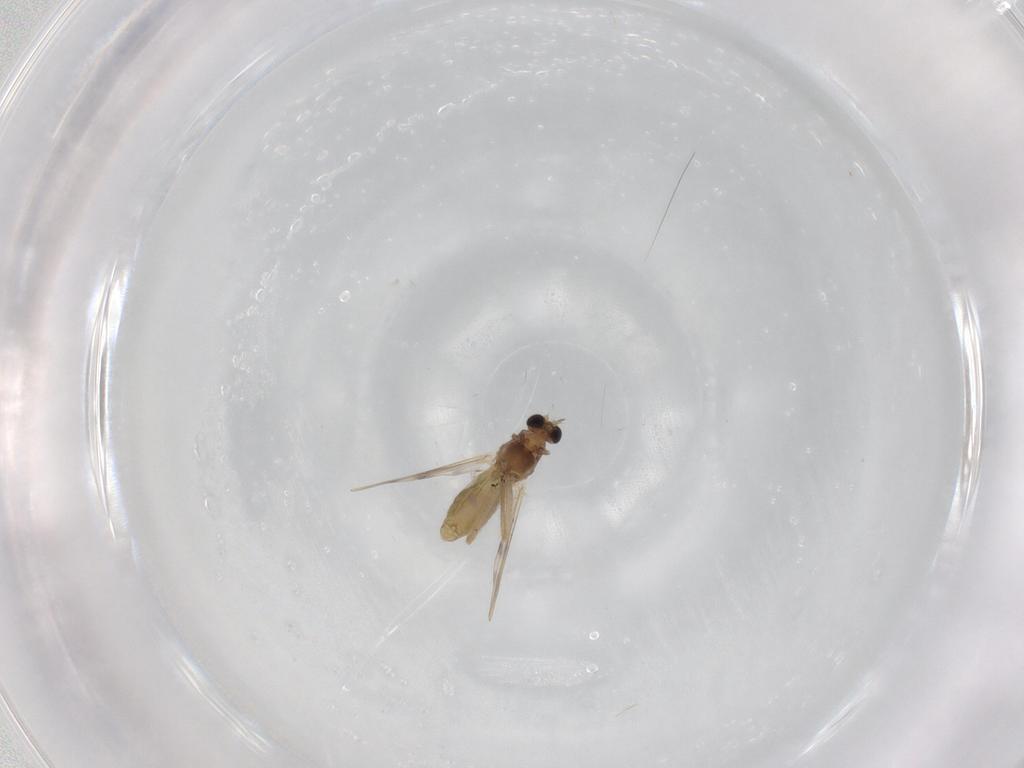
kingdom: Animalia
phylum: Arthropoda
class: Insecta
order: Diptera
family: Chironomidae
